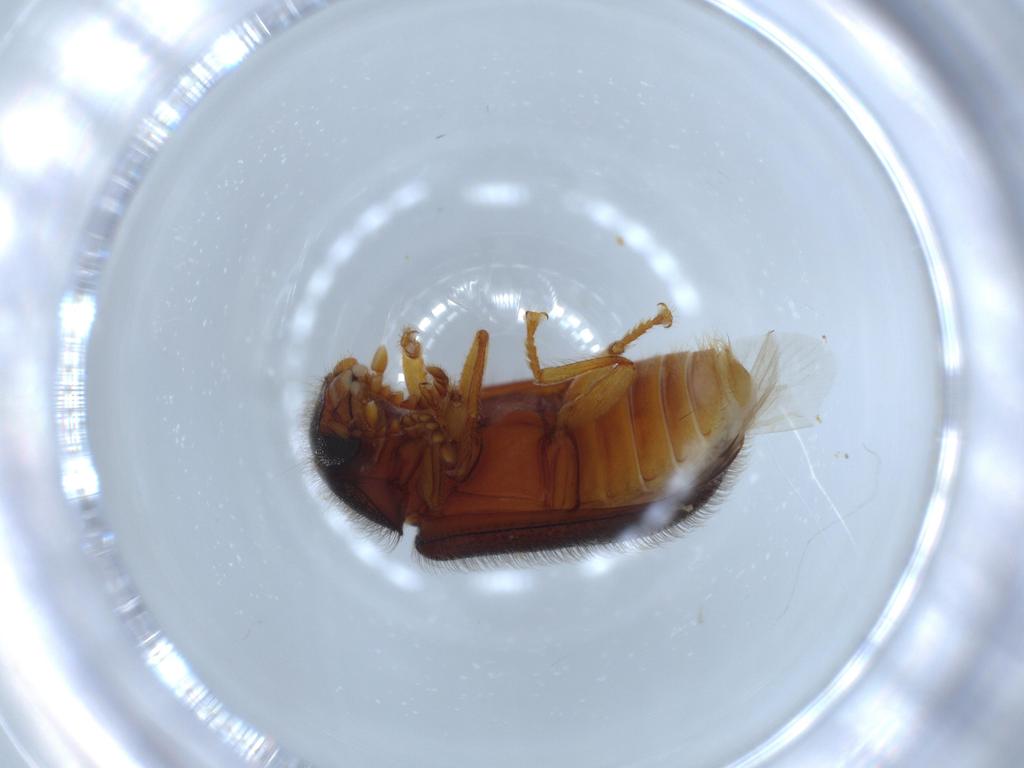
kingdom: Animalia
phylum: Arthropoda
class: Insecta
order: Coleoptera
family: Rhadalidae
